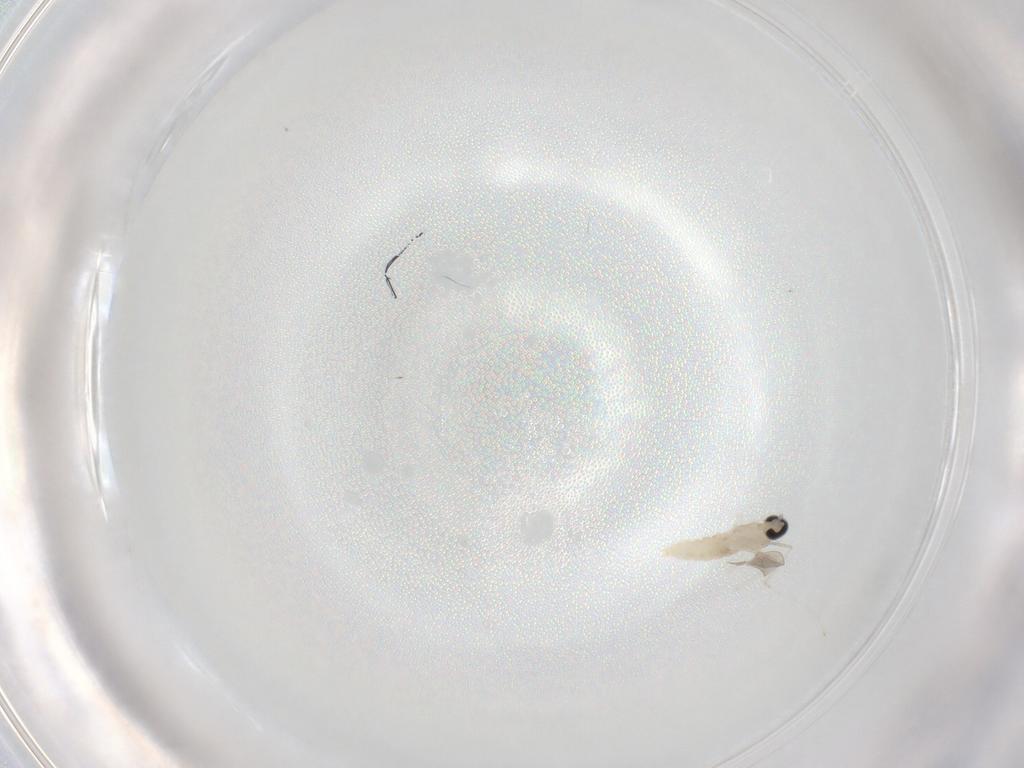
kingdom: Animalia
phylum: Arthropoda
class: Insecta
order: Diptera
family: Cecidomyiidae
